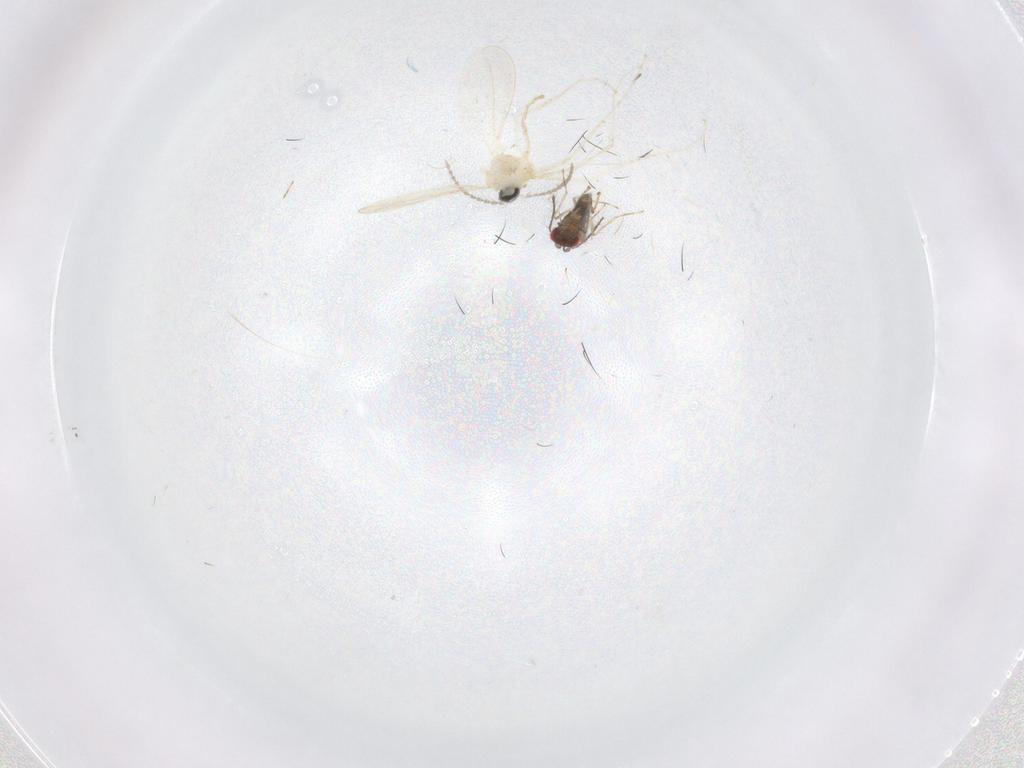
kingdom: Animalia
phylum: Arthropoda
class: Insecta
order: Diptera
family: Cecidomyiidae
